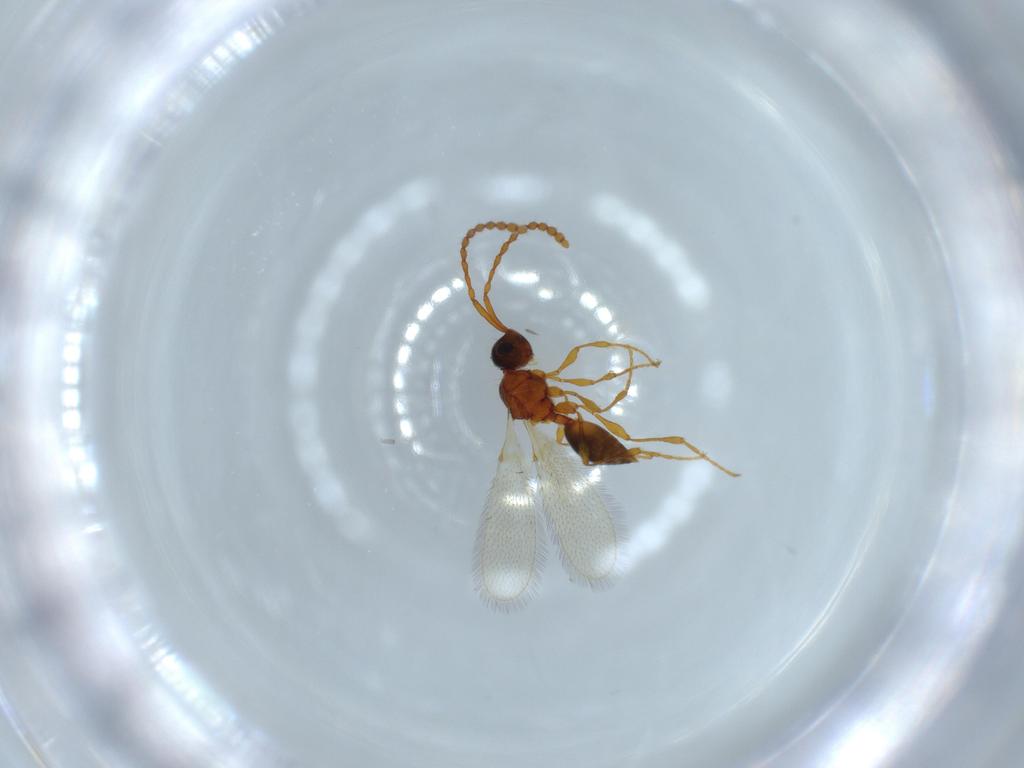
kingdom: Animalia
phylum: Arthropoda
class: Insecta
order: Hymenoptera
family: Diapriidae
